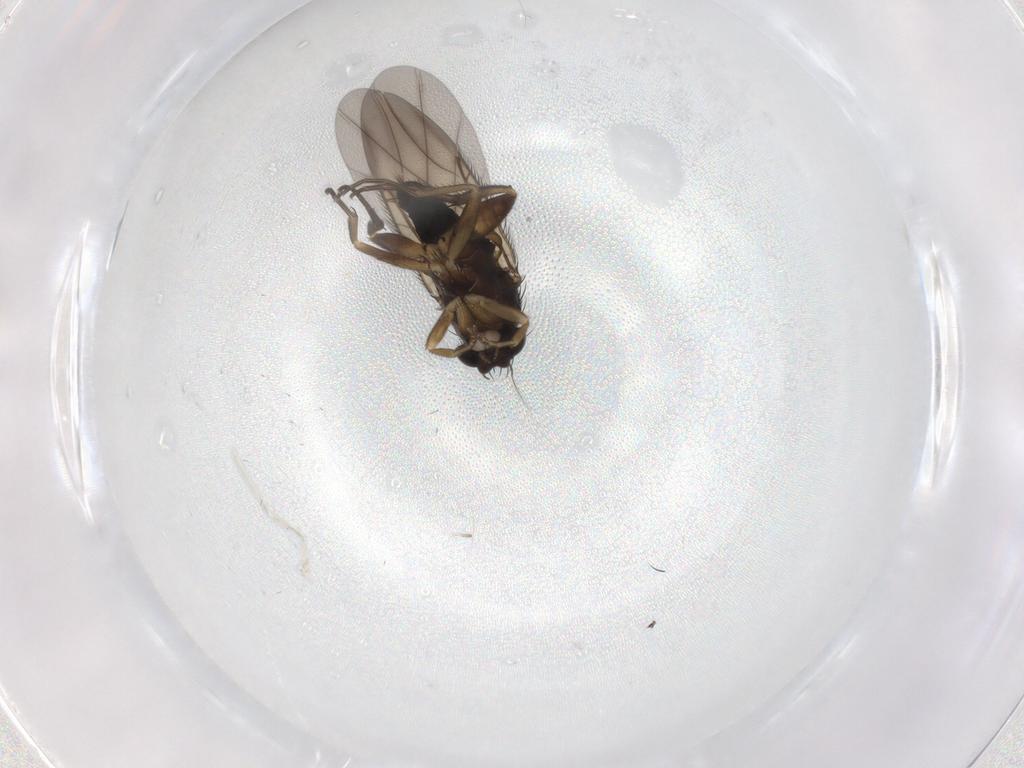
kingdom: Animalia
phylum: Arthropoda
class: Insecta
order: Diptera
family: Phoridae
